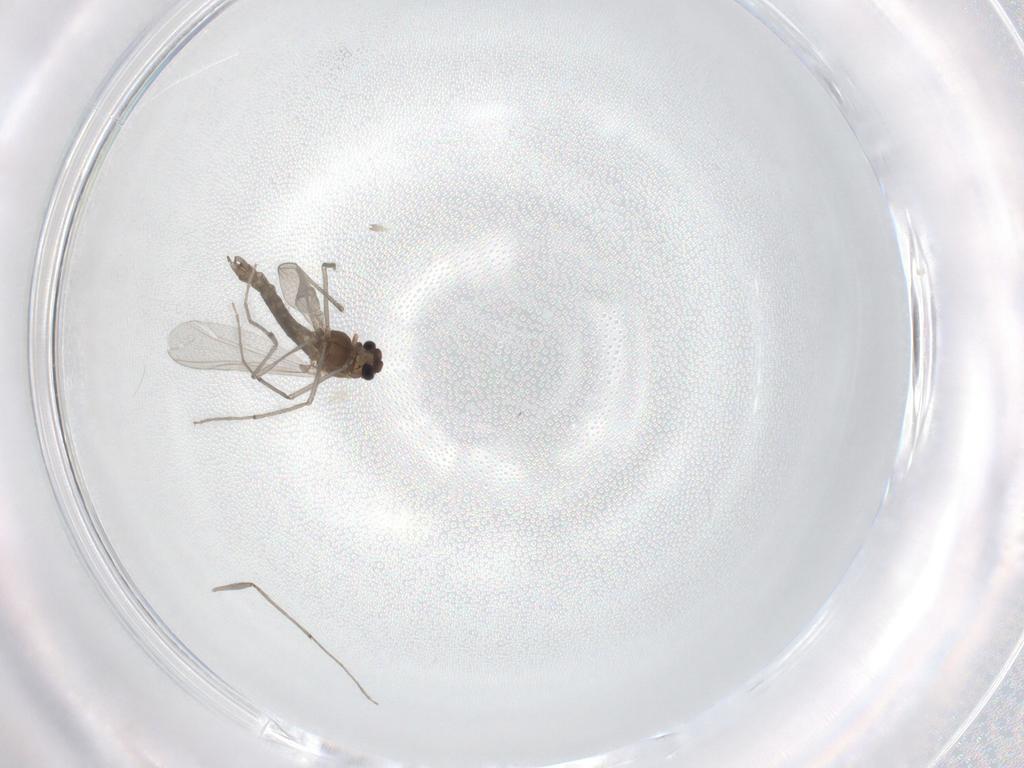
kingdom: Animalia
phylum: Arthropoda
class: Insecta
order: Diptera
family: Chironomidae
